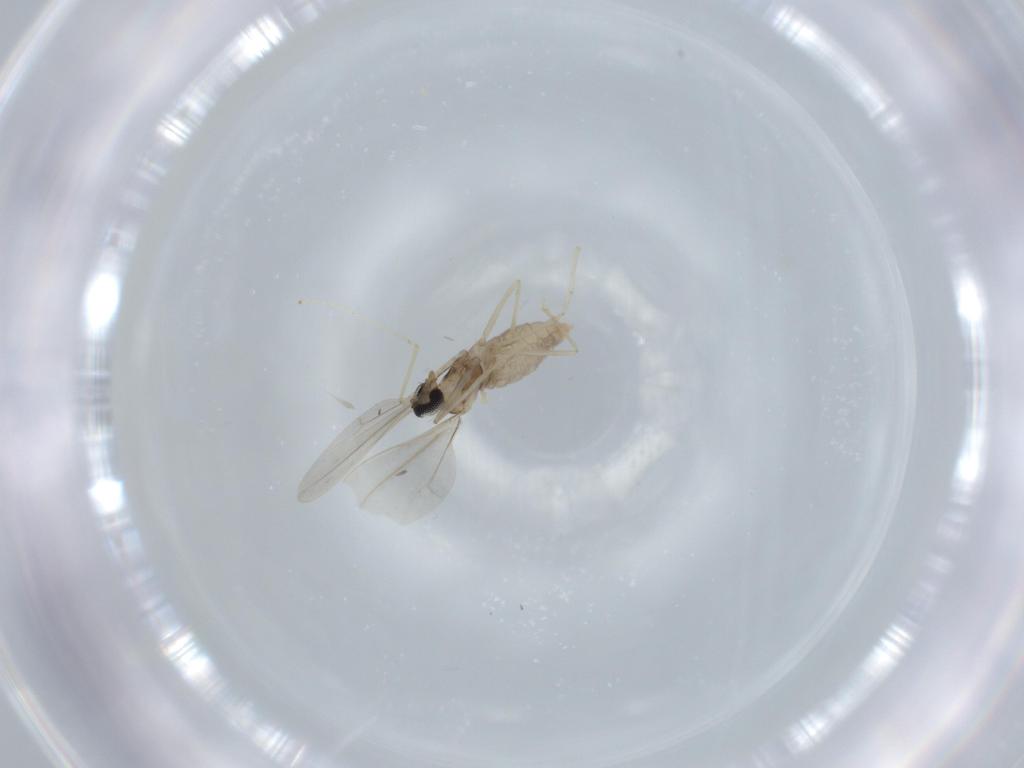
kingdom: Animalia
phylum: Arthropoda
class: Insecta
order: Diptera
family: Cecidomyiidae
